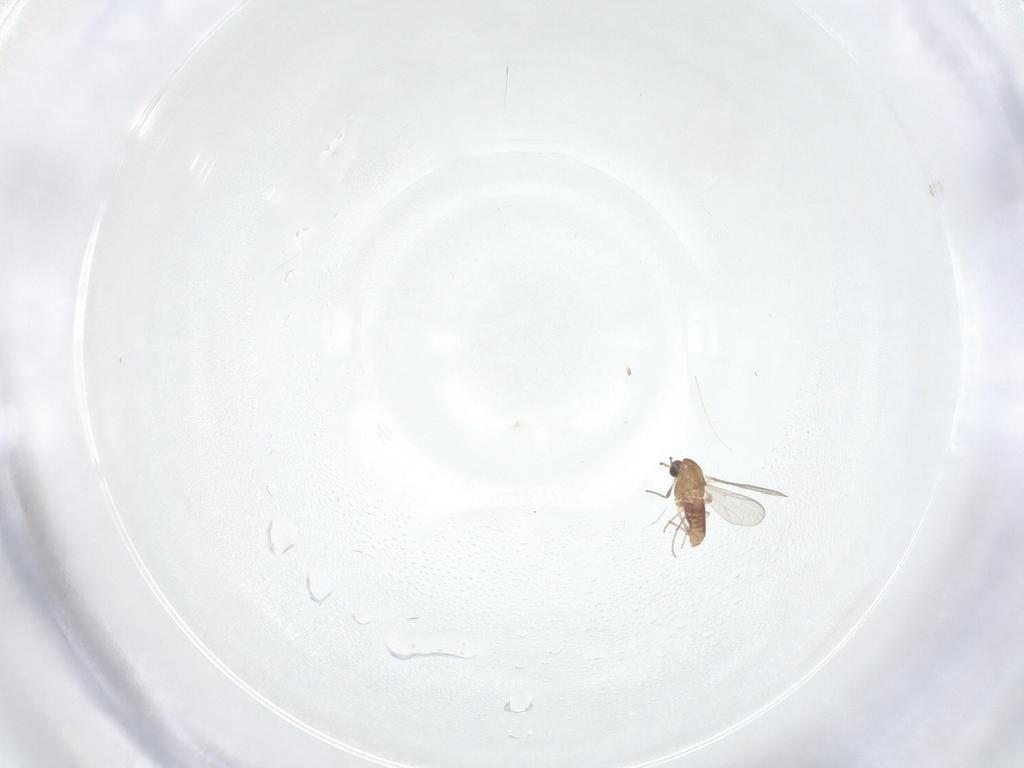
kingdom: Animalia
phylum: Arthropoda
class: Insecta
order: Diptera
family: Chironomidae
